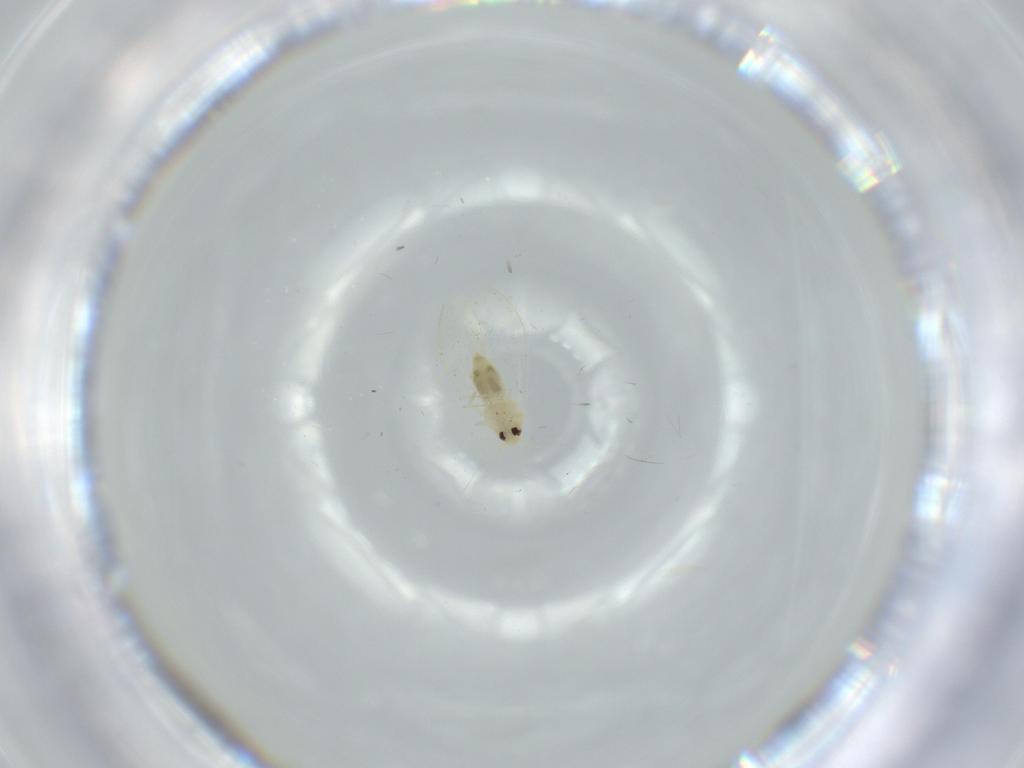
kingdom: Animalia
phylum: Arthropoda
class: Insecta
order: Hemiptera
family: Aleyrodidae
